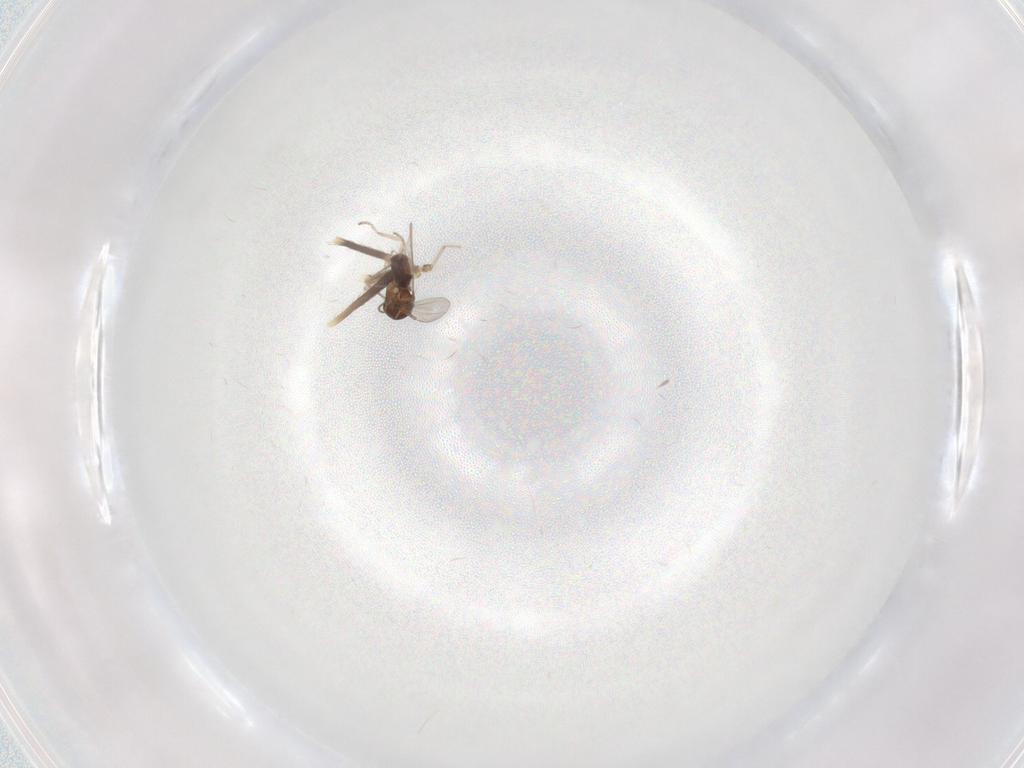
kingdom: Animalia
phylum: Arthropoda
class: Insecta
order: Diptera
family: Ceratopogonidae
